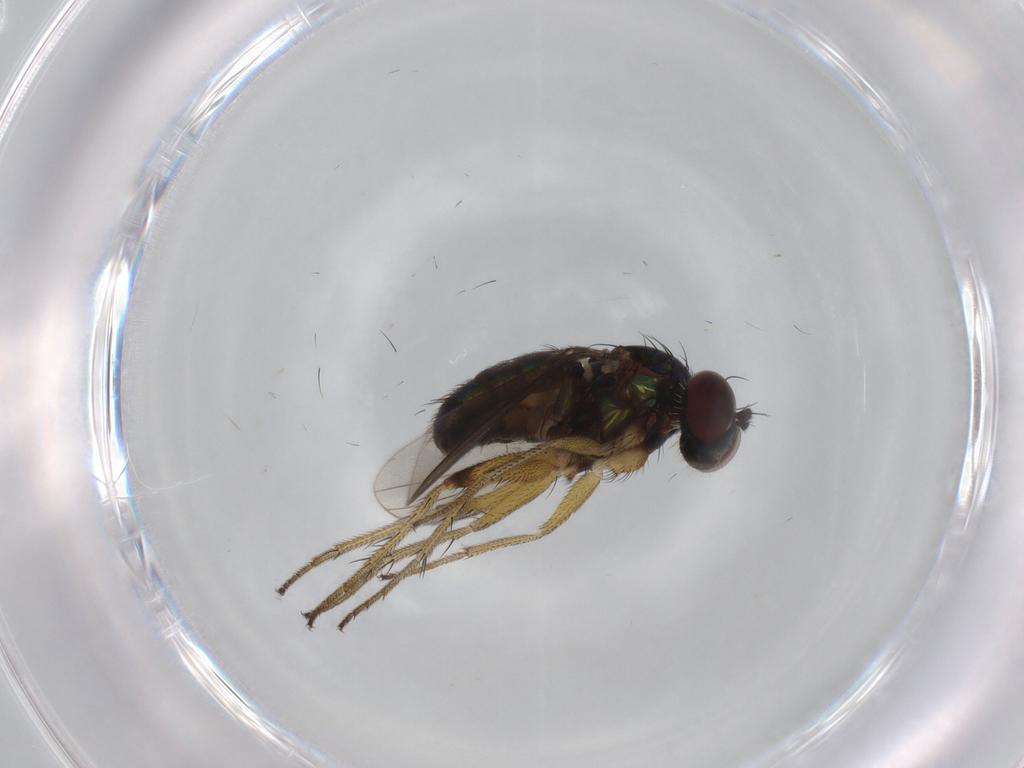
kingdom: Animalia
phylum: Arthropoda
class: Insecta
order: Diptera
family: Dolichopodidae
